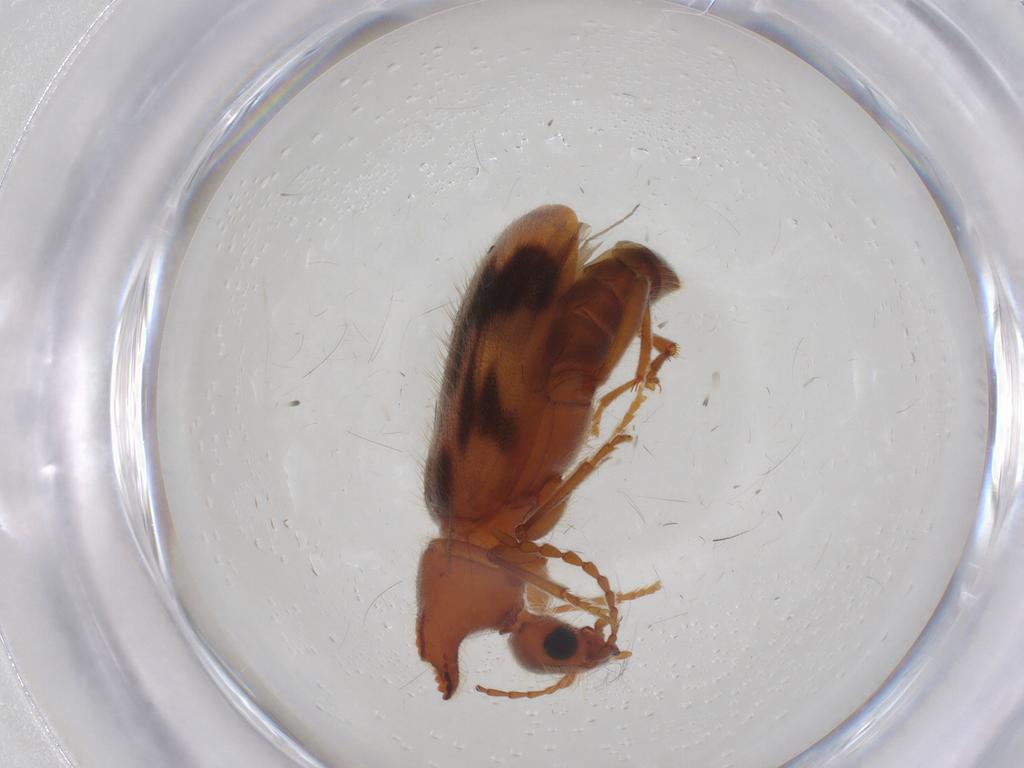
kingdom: Animalia
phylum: Arthropoda
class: Insecta
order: Coleoptera
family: Anthicidae
